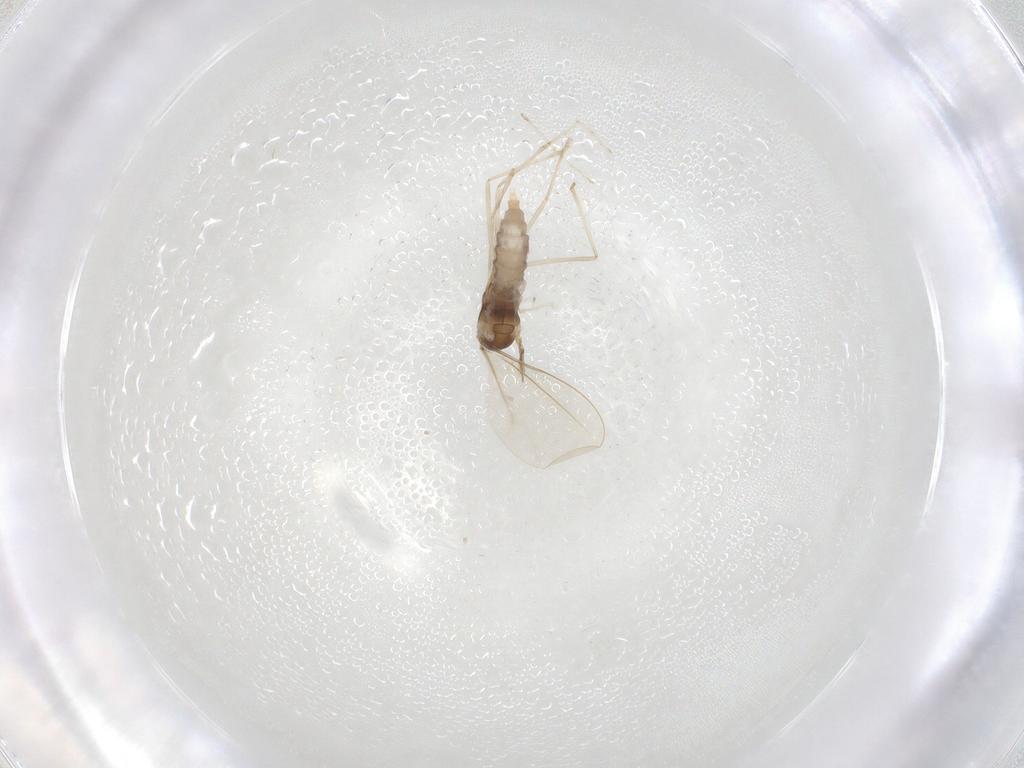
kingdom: Animalia
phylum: Arthropoda
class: Insecta
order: Diptera
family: Cecidomyiidae
